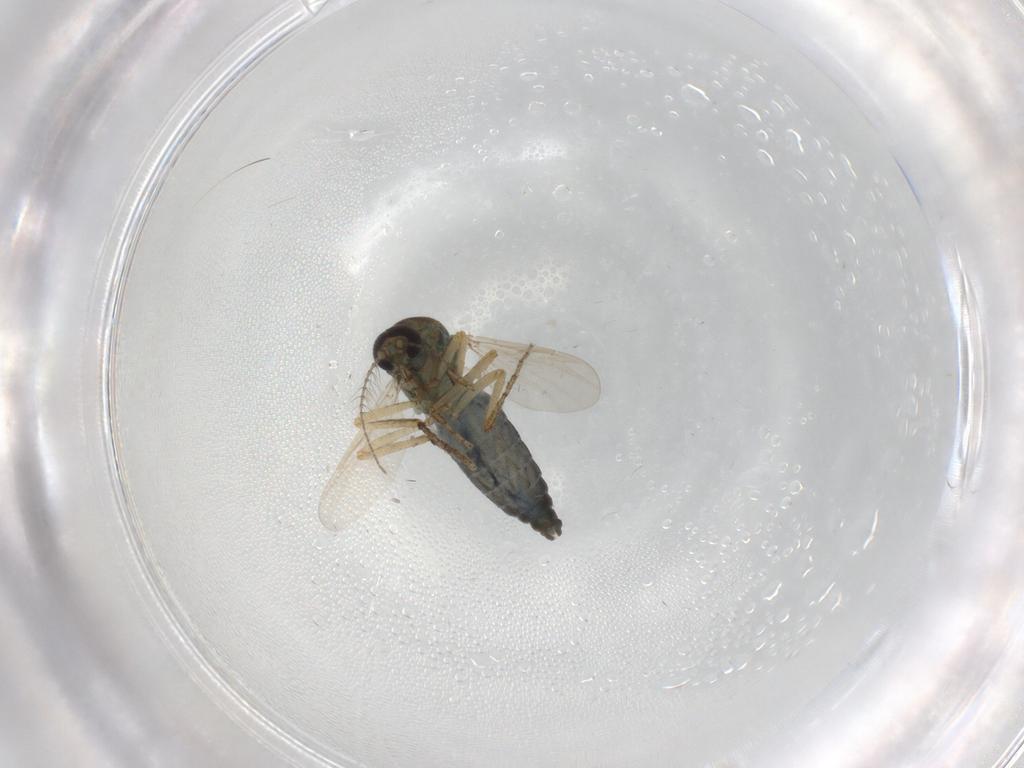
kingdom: Animalia
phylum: Arthropoda
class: Insecta
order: Diptera
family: Ceratopogonidae
